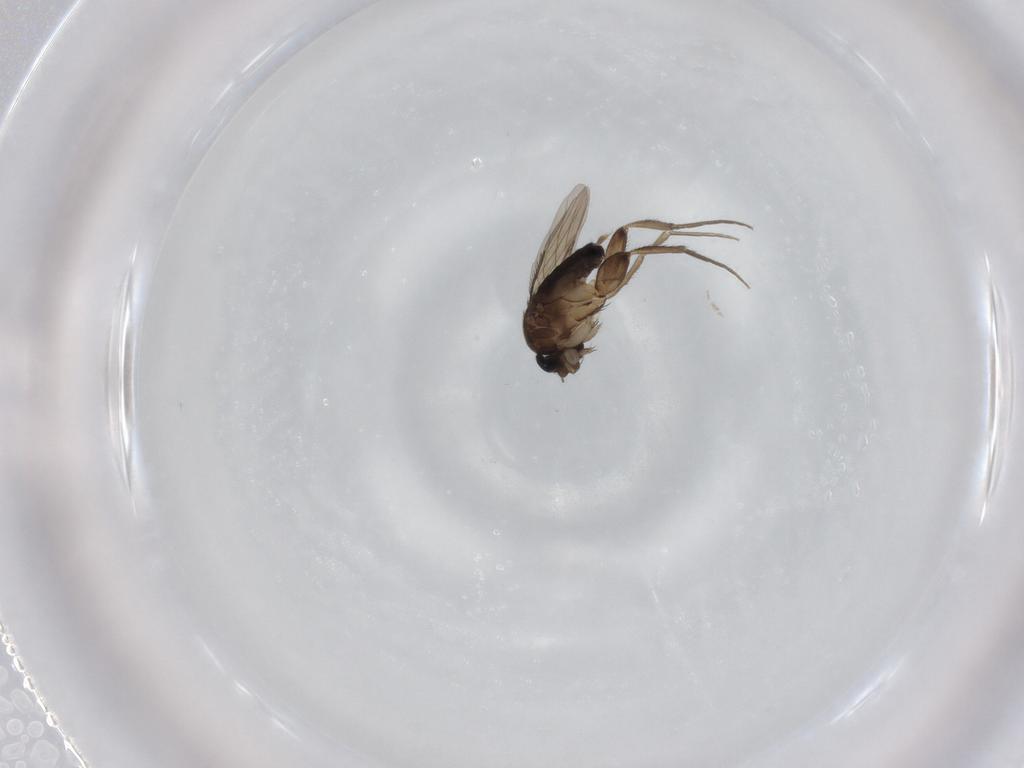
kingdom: Animalia
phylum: Arthropoda
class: Insecta
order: Diptera
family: Phoridae
